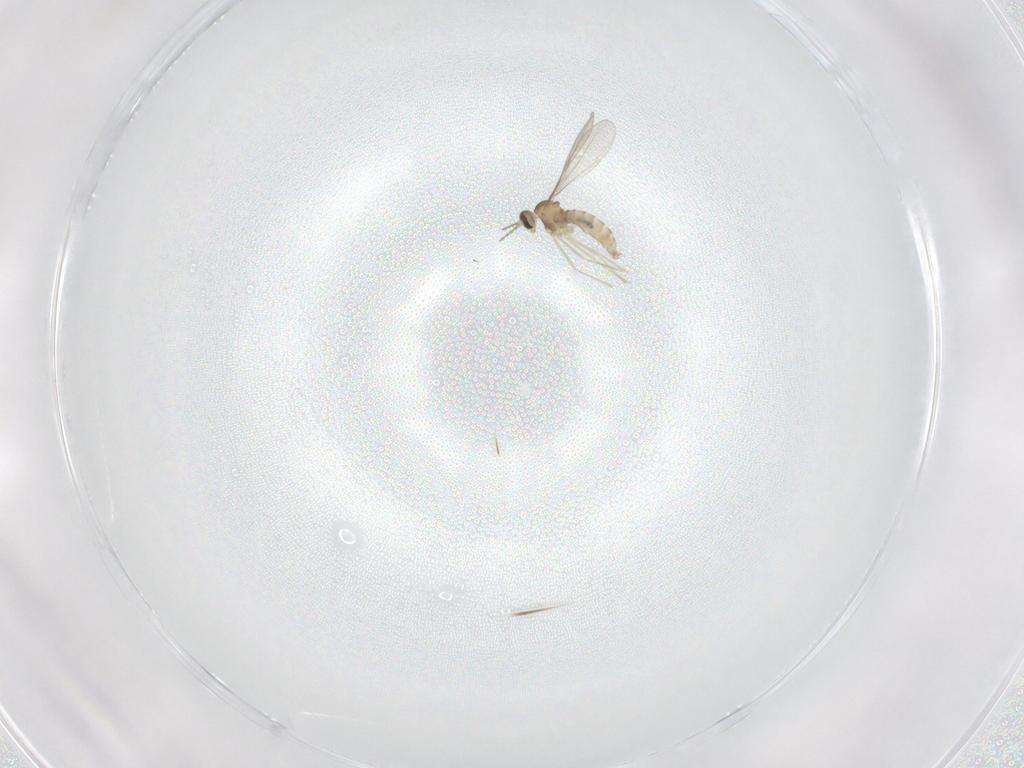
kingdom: Animalia
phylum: Arthropoda
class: Insecta
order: Diptera
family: Cecidomyiidae
